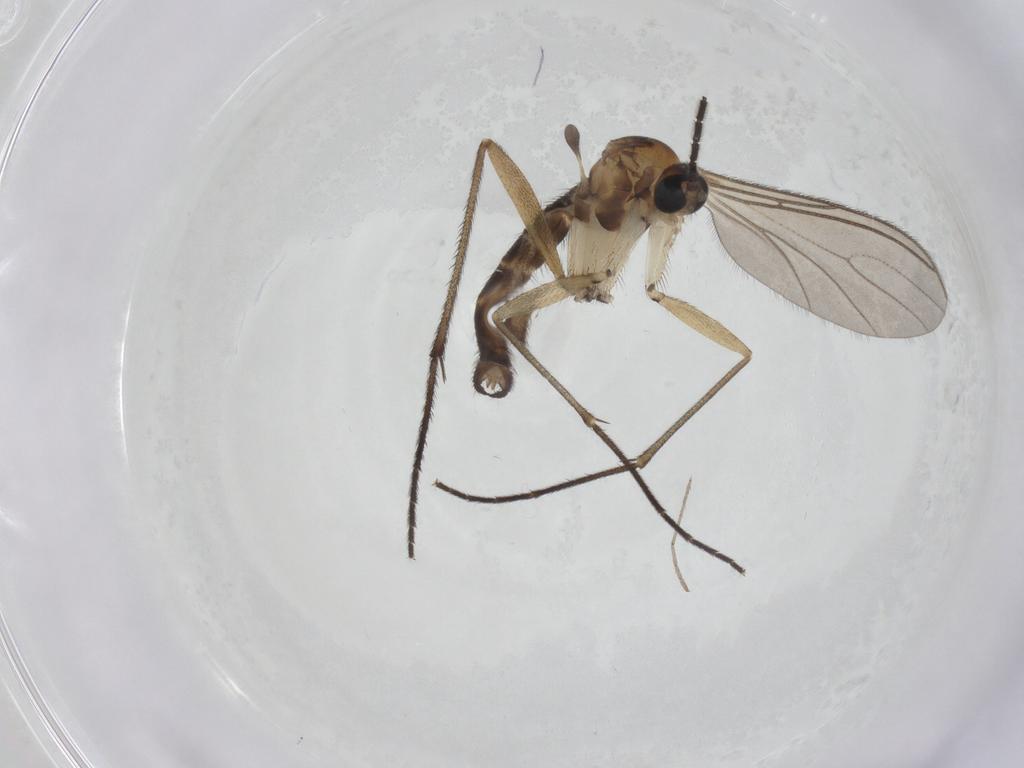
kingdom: Animalia
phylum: Arthropoda
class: Insecta
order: Diptera
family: Sciaridae
